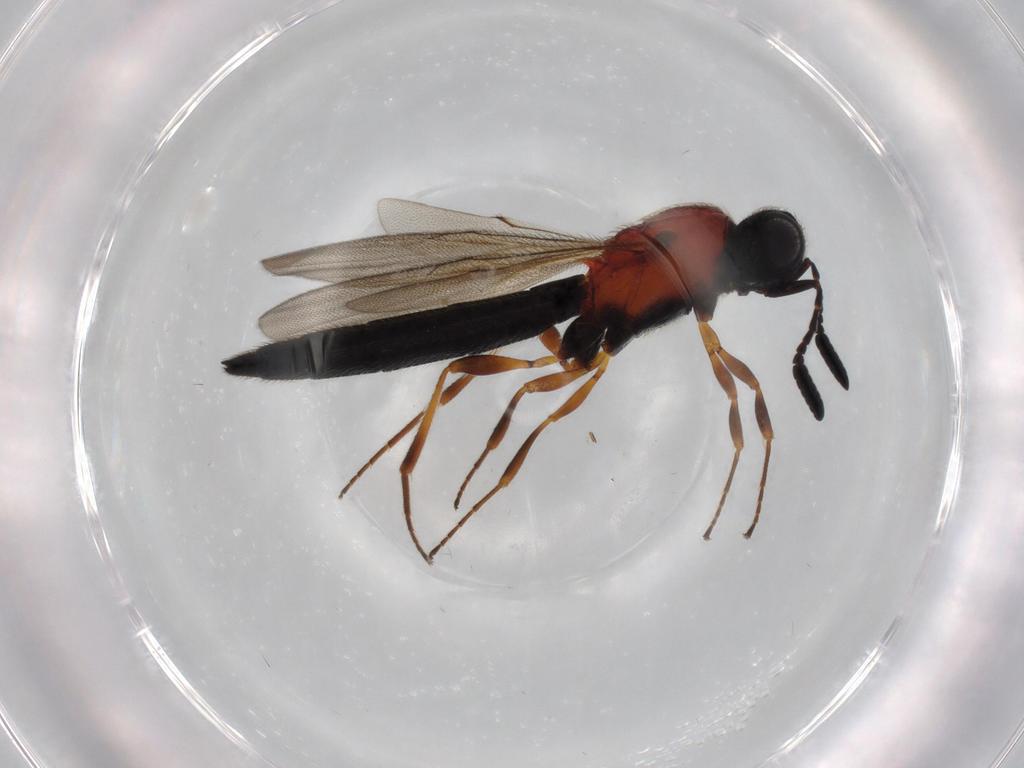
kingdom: Animalia
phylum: Arthropoda
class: Insecta
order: Hymenoptera
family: Scelionidae
